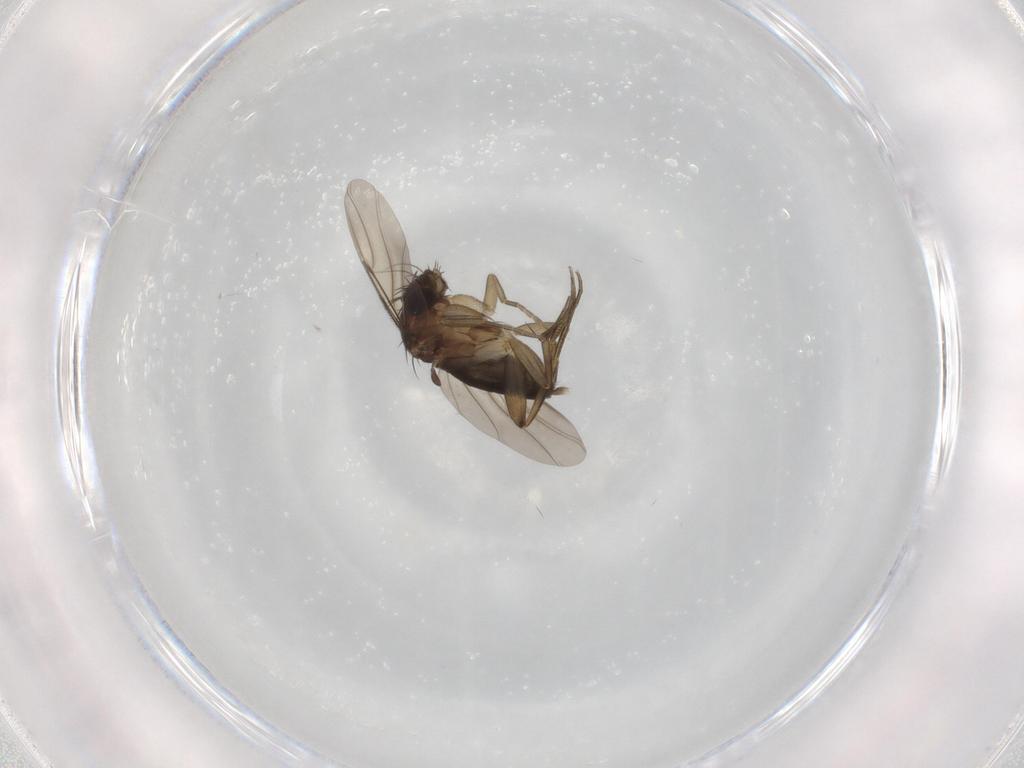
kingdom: Animalia
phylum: Arthropoda
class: Insecta
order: Diptera
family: Phoridae
